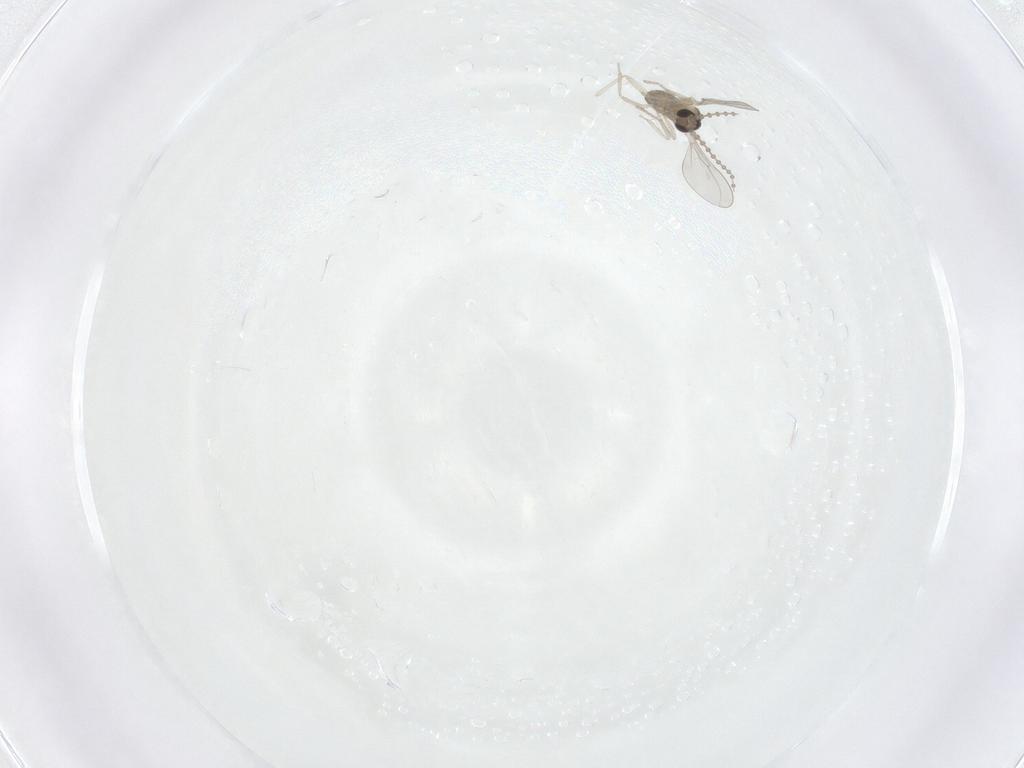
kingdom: Animalia
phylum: Arthropoda
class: Insecta
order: Diptera
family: Cecidomyiidae
